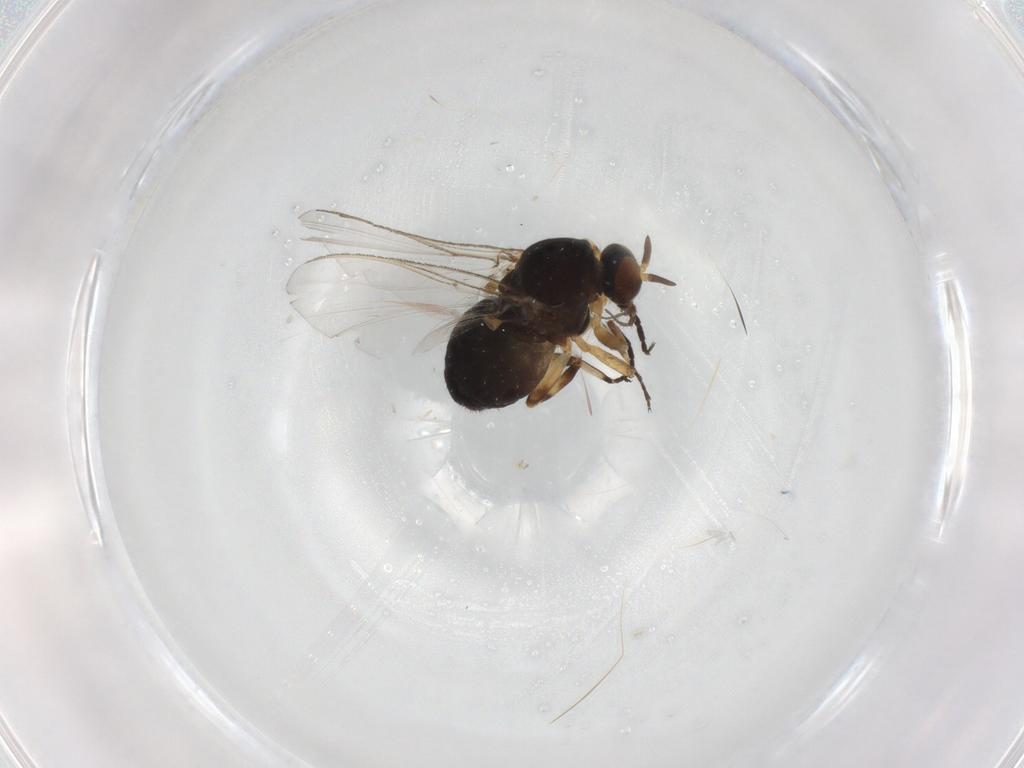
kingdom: Animalia
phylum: Arthropoda
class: Insecta
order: Diptera
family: Simuliidae
